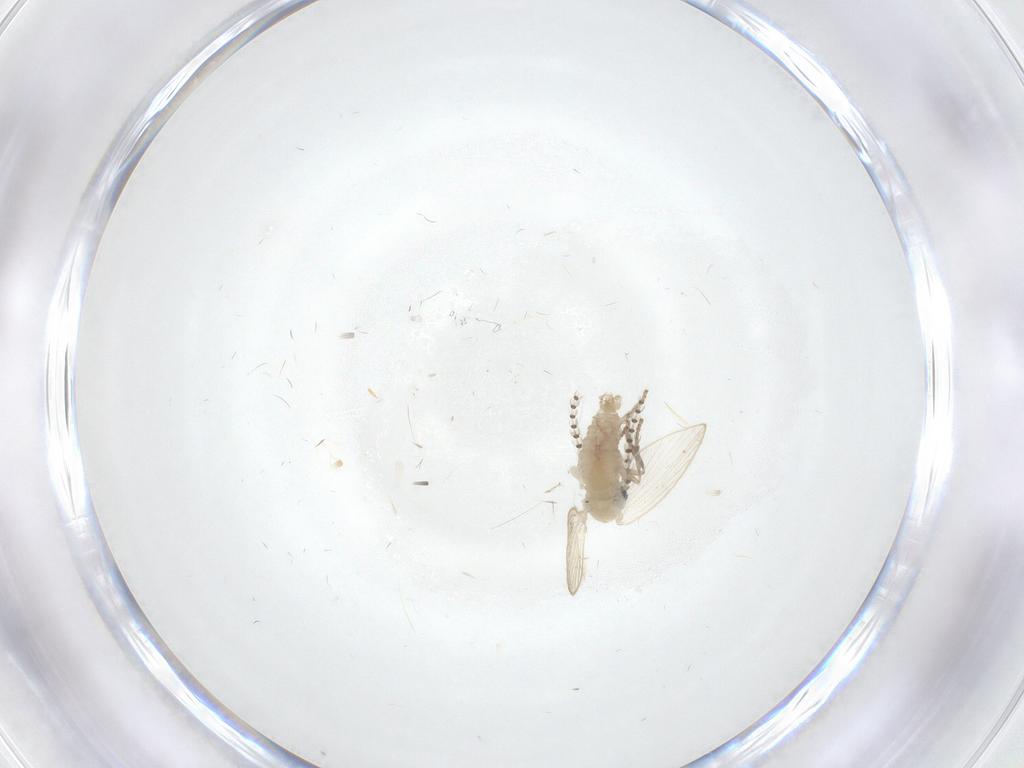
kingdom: Animalia
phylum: Arthropoda
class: Insecta
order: Diptera
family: Psychodidae
